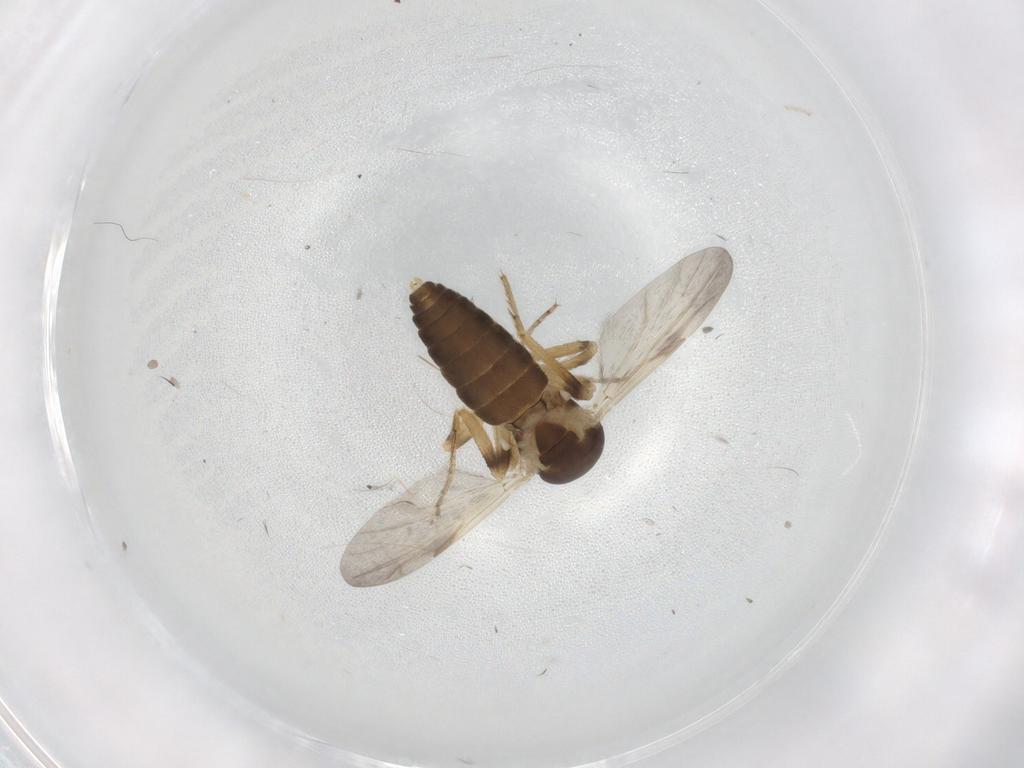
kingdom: Animalia
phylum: Arthropoda
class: Insecta
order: Diptera
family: Ceratopogonidae
